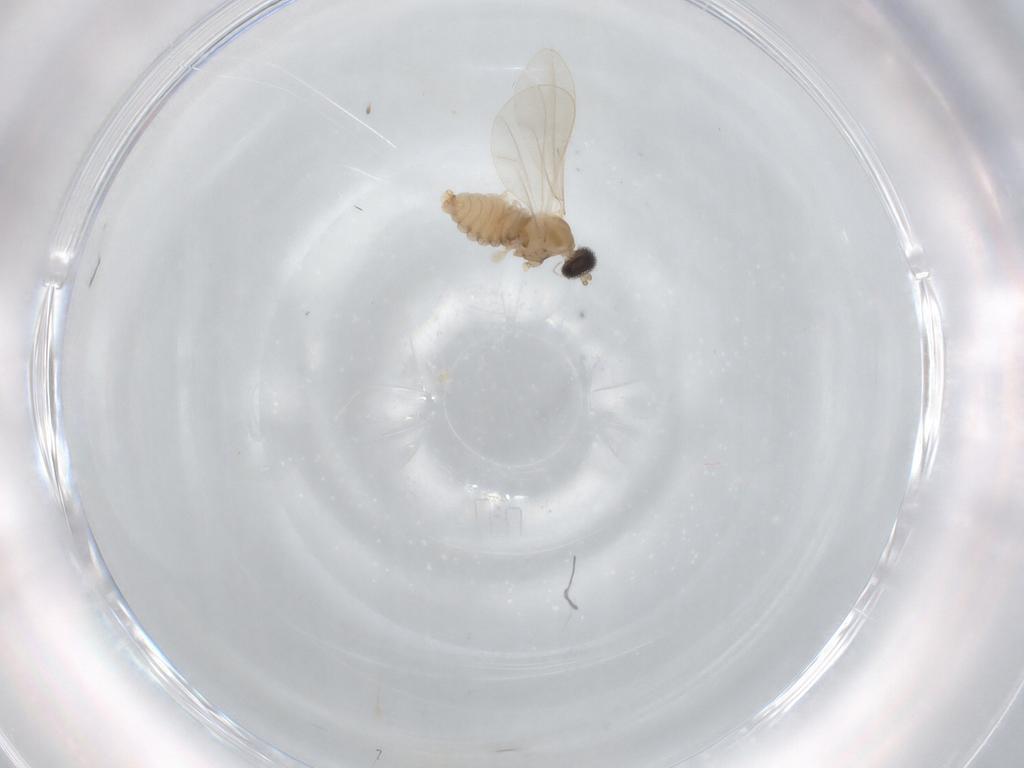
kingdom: Animalia
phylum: Arthropoda
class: Insecta
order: Diptera
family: Cecidomyiidae
